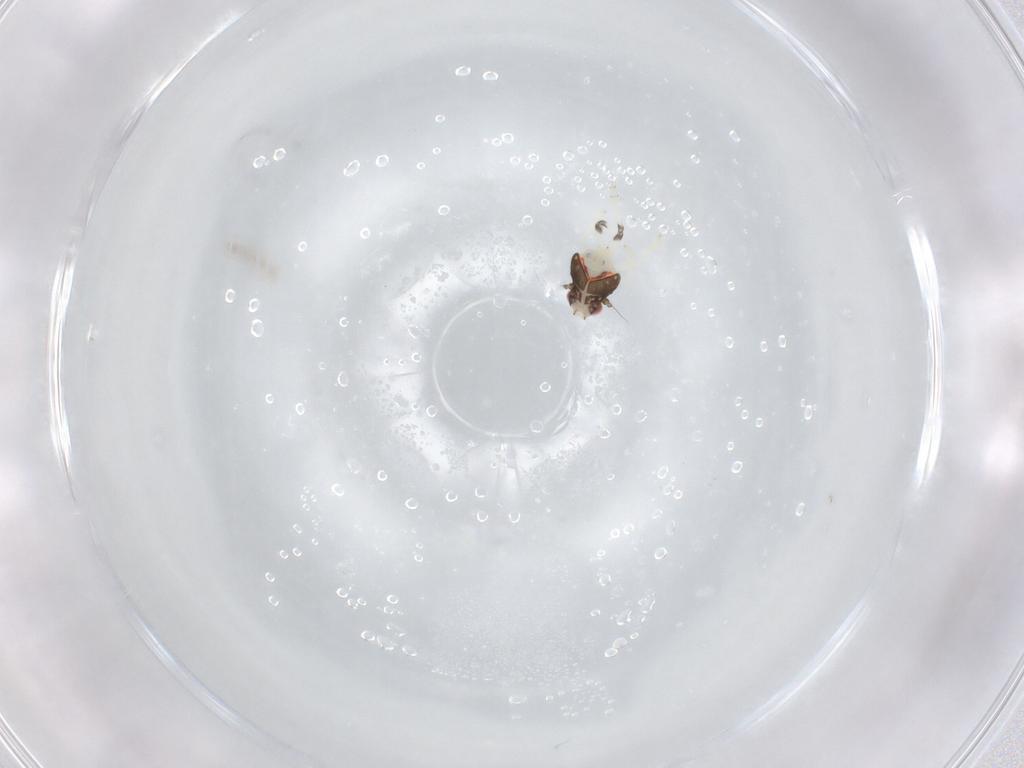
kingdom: Animalia
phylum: Arthropoda
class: Insecta
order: Hemiptera
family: Nogodinidae
